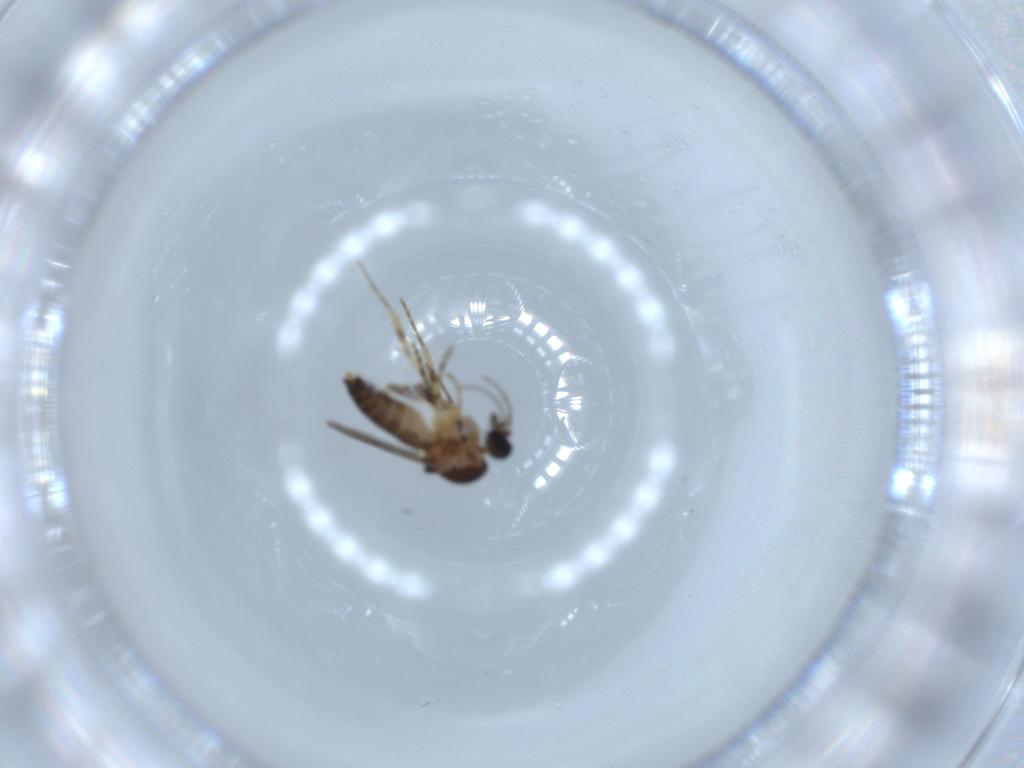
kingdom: Animalia
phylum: Arthropoda
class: Insecta
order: Diptera
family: Ceratopogonidae
